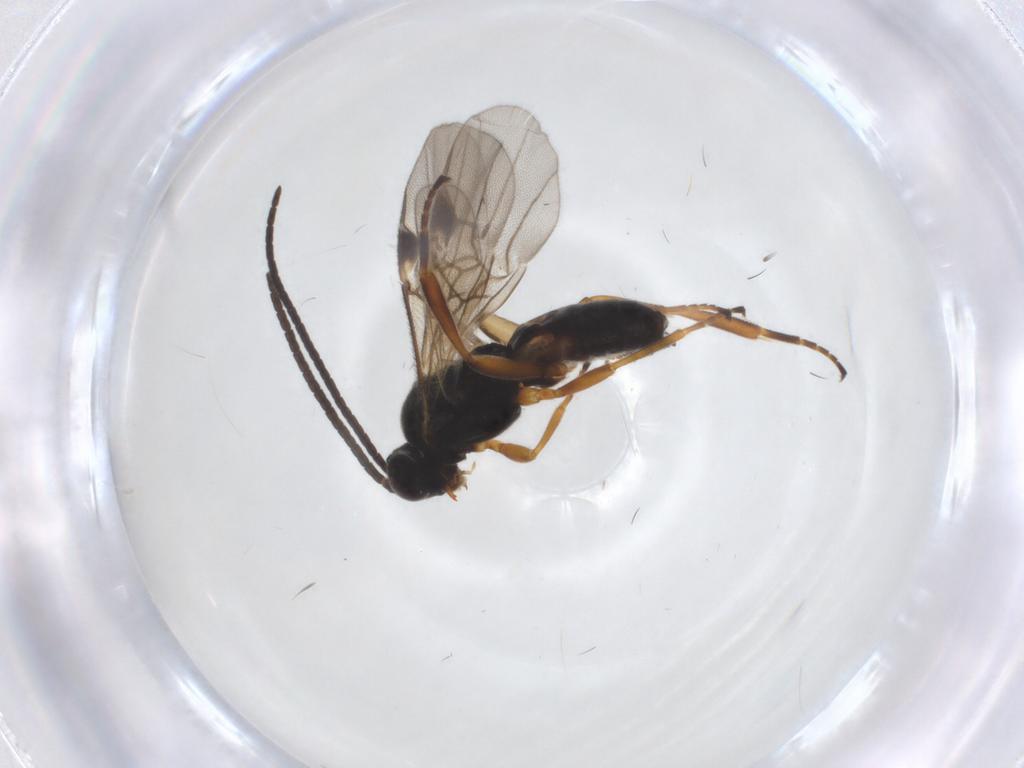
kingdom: Animalia
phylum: Arthropoda
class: Insecta
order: Hymenoptera
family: Braconidae
